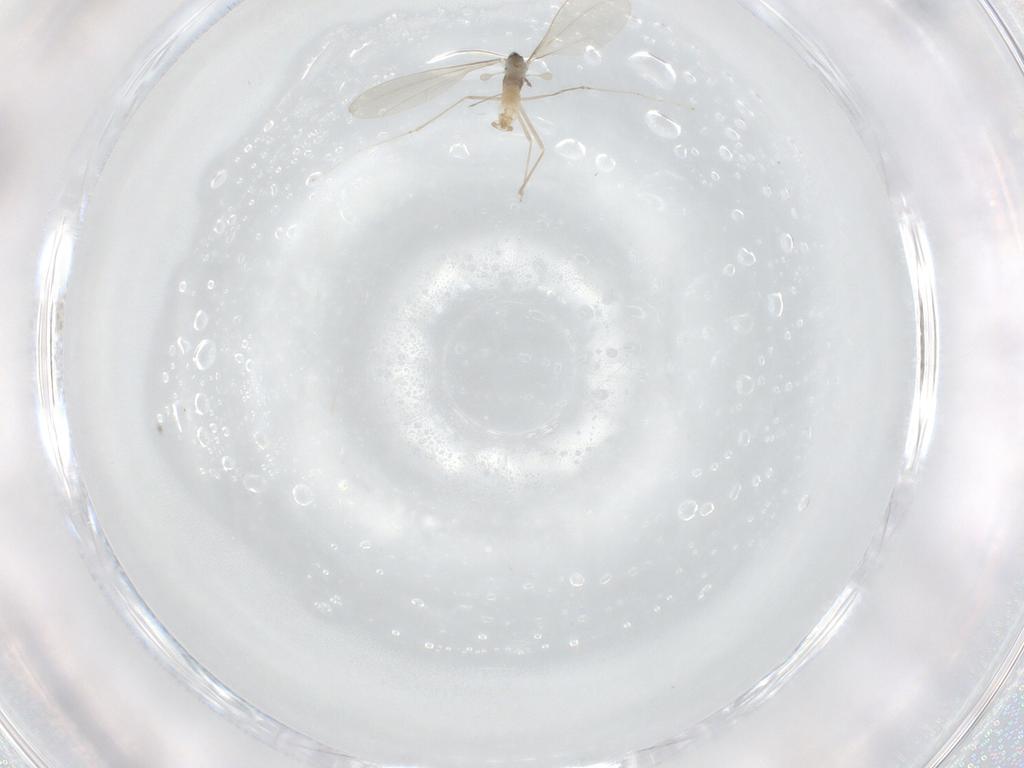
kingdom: Animalia
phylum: Arthropoda
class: Insecta
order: Diptera
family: Cecidomyiidae
